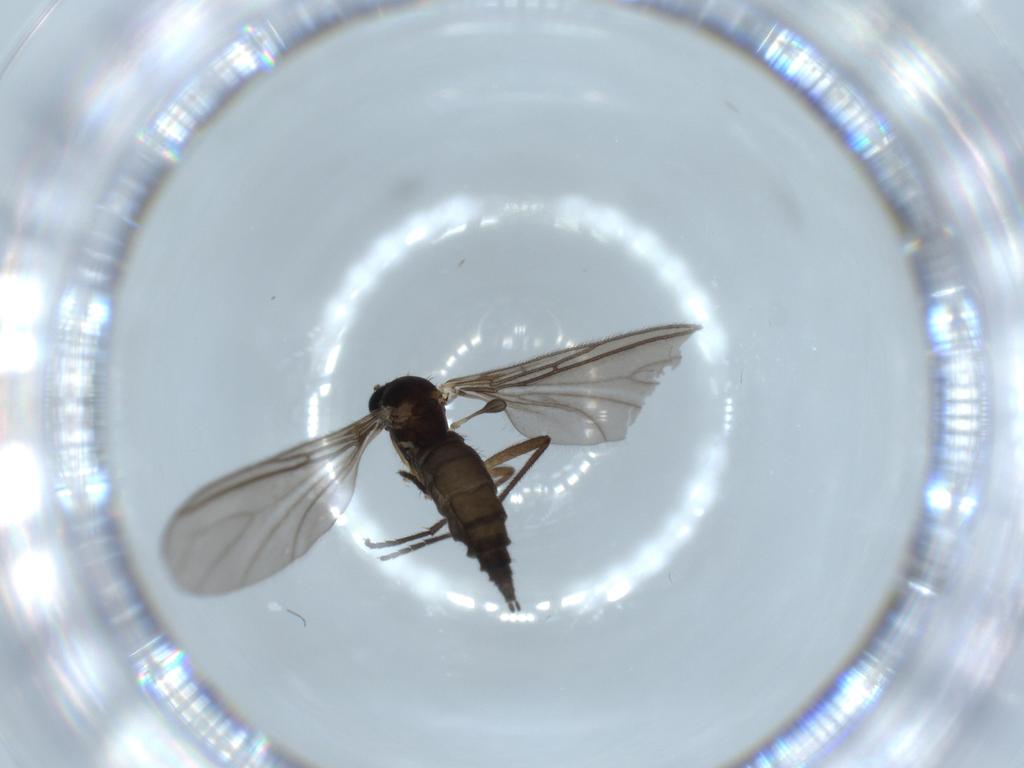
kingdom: Animalia
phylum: Arthropoda
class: Insecta
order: Diptera
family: Sciaridae
